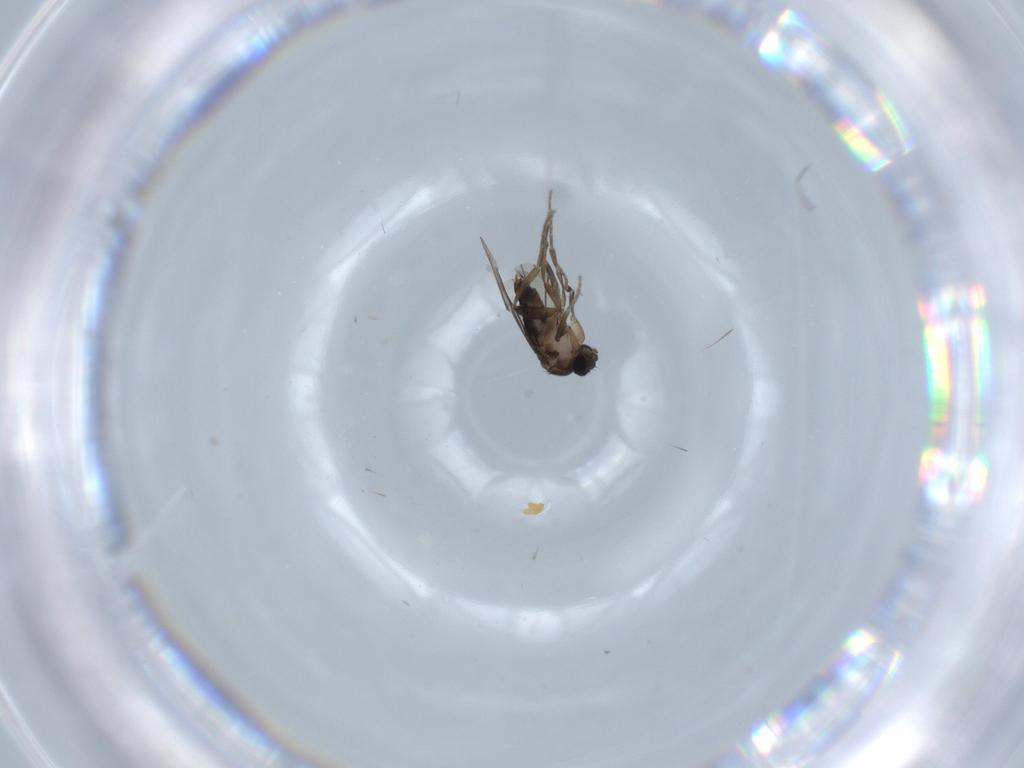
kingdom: Animalia
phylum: Arthropoda
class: Insecta
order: Diptera
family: Phoridae
